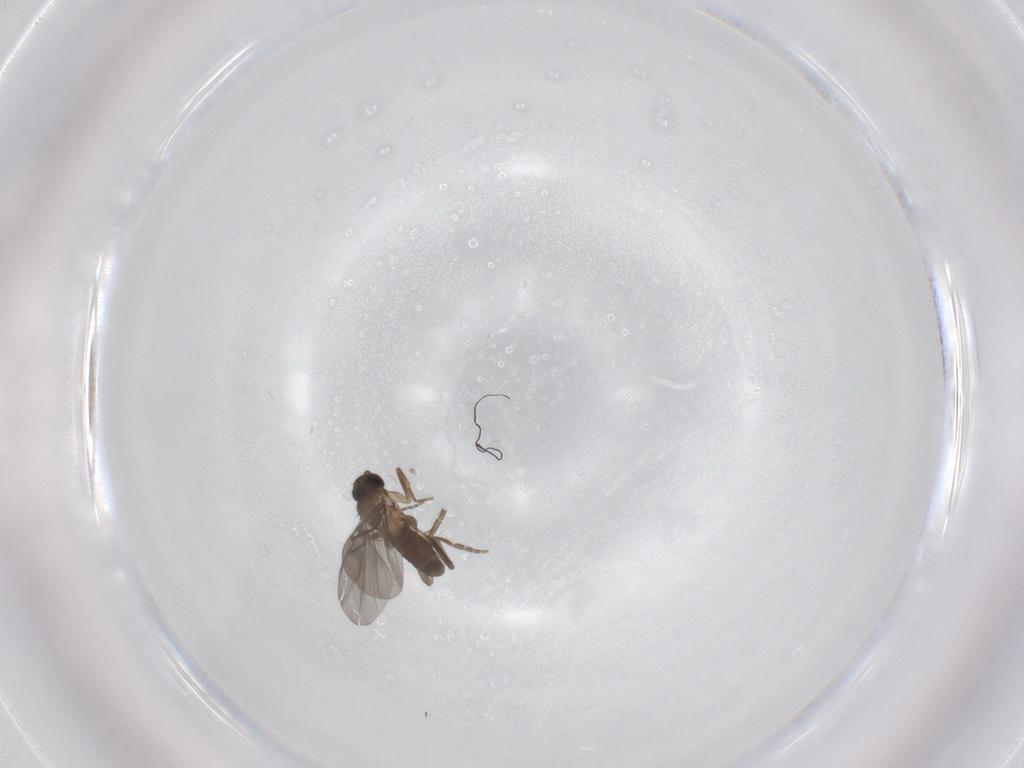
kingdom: Animalia
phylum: Arthropoda
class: Insecta
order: Diptera
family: Phoridae
